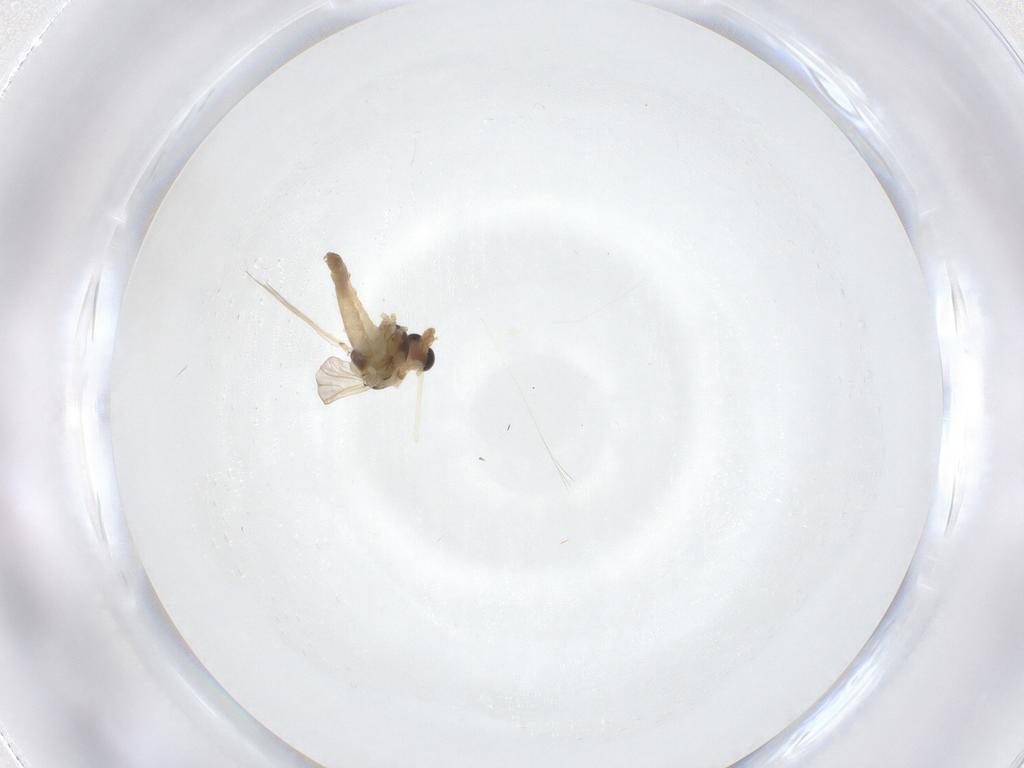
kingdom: Animalia
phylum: Arthropoda
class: Insecta
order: Diptera
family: Chironomidae
